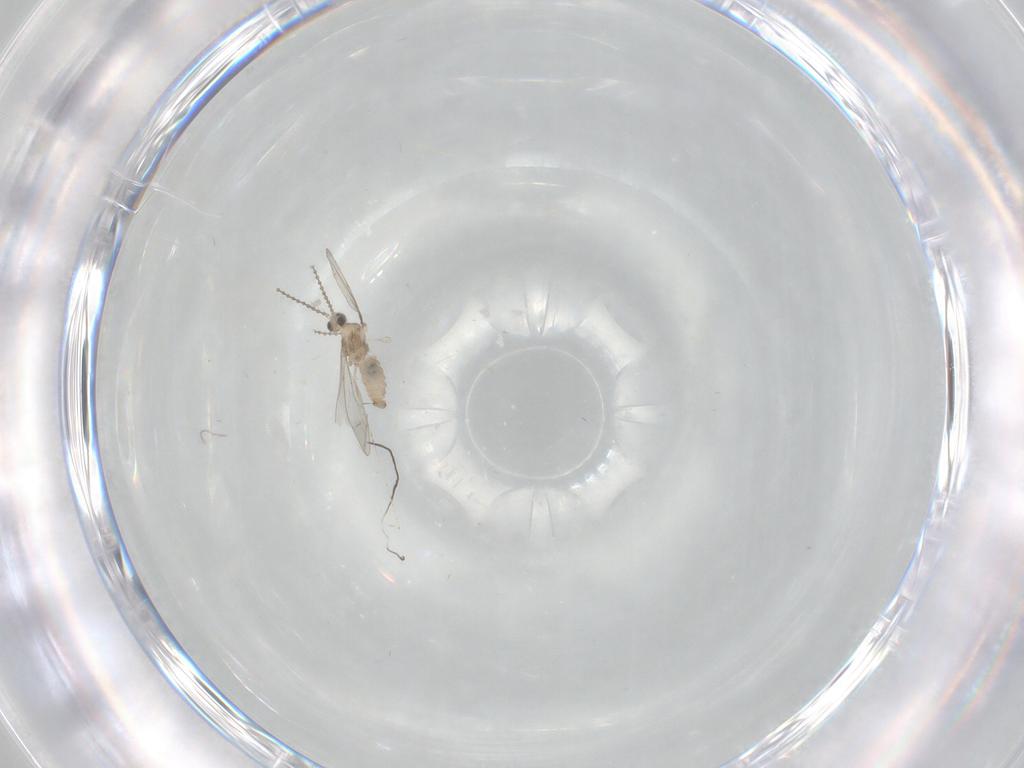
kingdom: Animalia
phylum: Arthropoda
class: Insecta
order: Diptera
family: Cecidomyiidae
